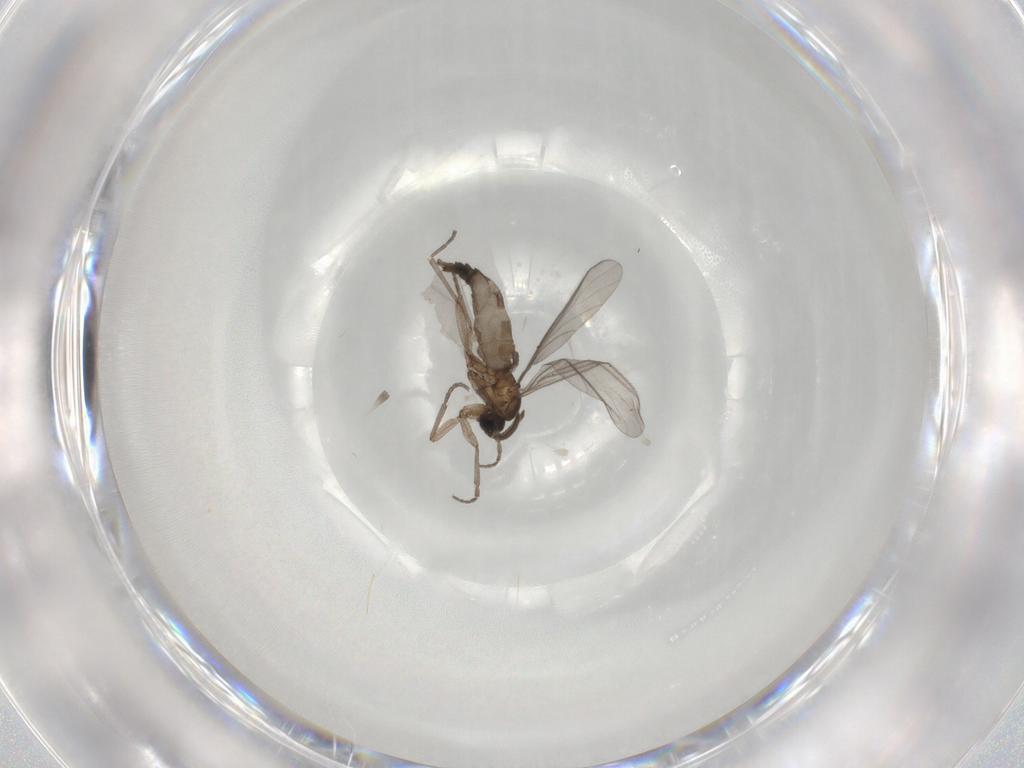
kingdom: Animalia
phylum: Arthropoda
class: Insecta
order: Diptera
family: Sciaridae
